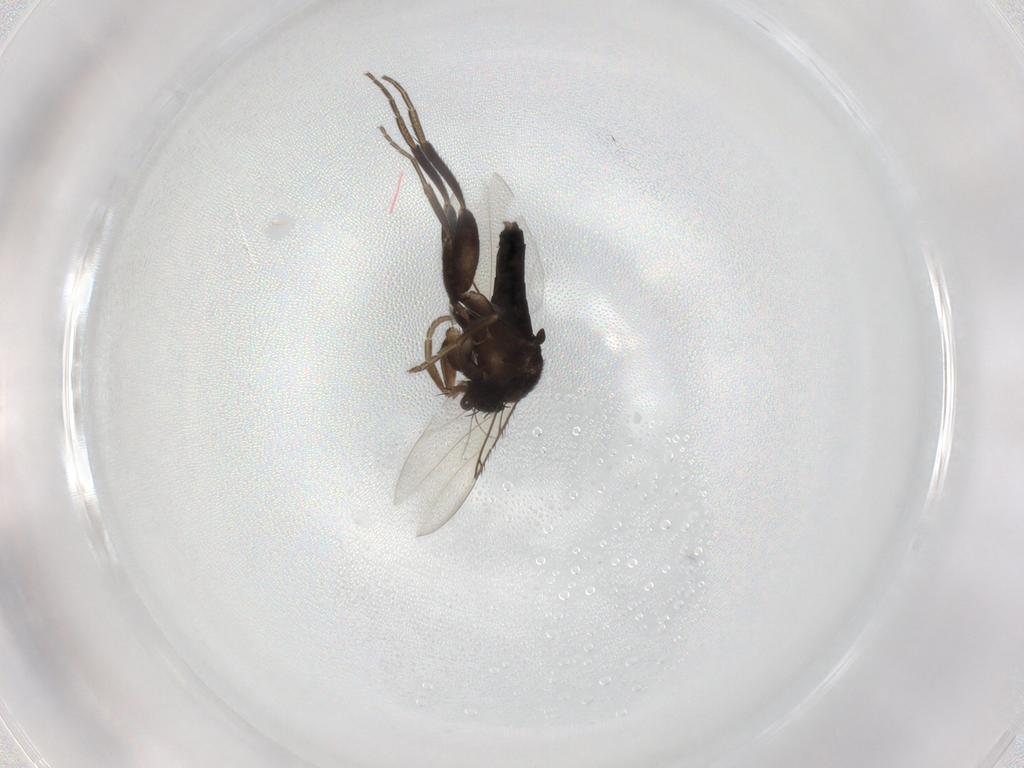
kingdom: Animalia
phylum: Arthropoda
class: Insecta
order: Diptera
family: Phoridae
